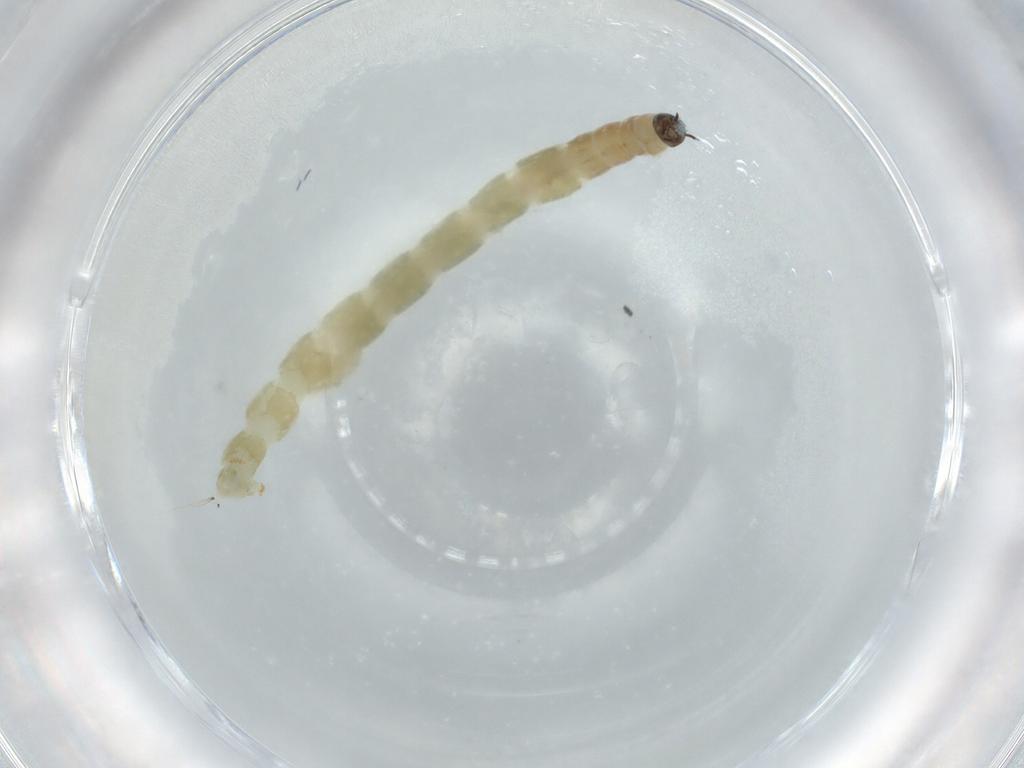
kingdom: Animalia
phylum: Arthropoda
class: Insecta
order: Diptera
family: Chironomidae
